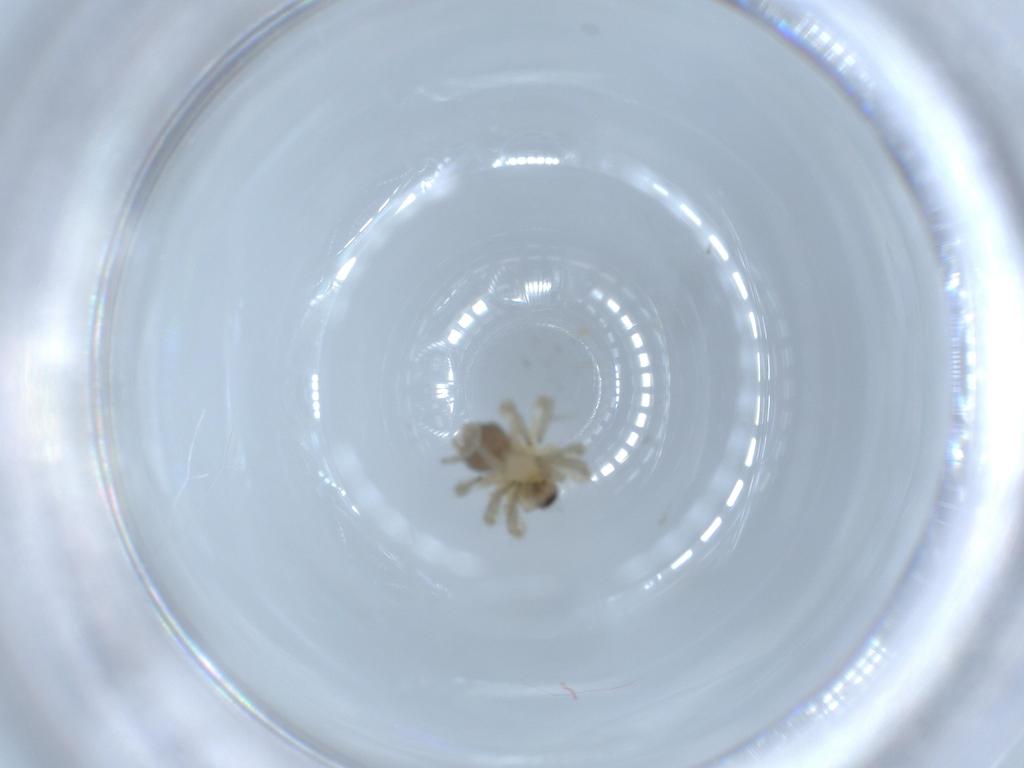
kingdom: Animalia
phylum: Arthropoda
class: Arachnida
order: Araneae
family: Sparassidae
